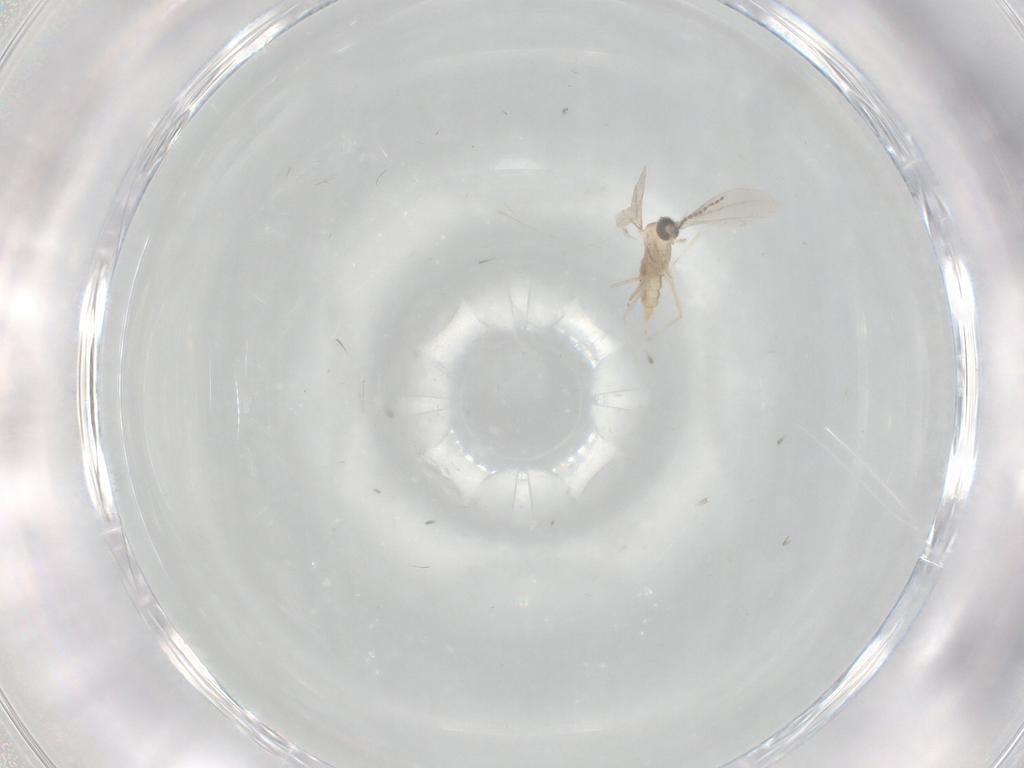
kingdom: Animalia
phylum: Arthropoda
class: Insecta
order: Diptera
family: Cecidomyiidae
